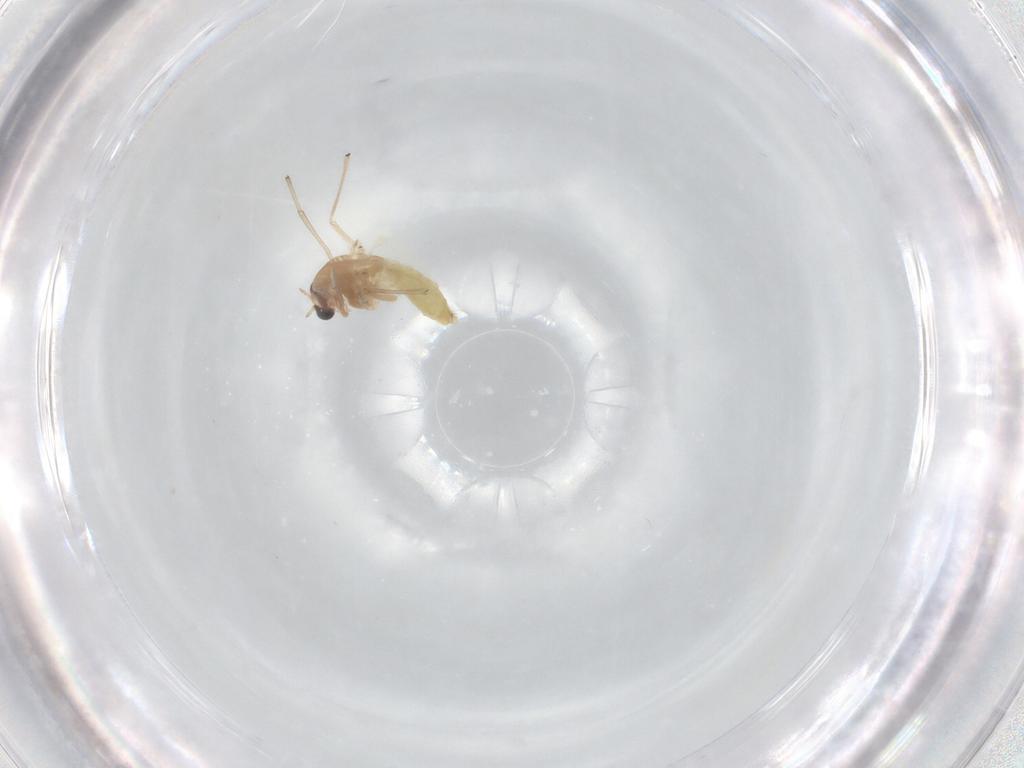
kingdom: Animalia
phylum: Arthropoda
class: Insecta
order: Diptera
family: Chironomidae
